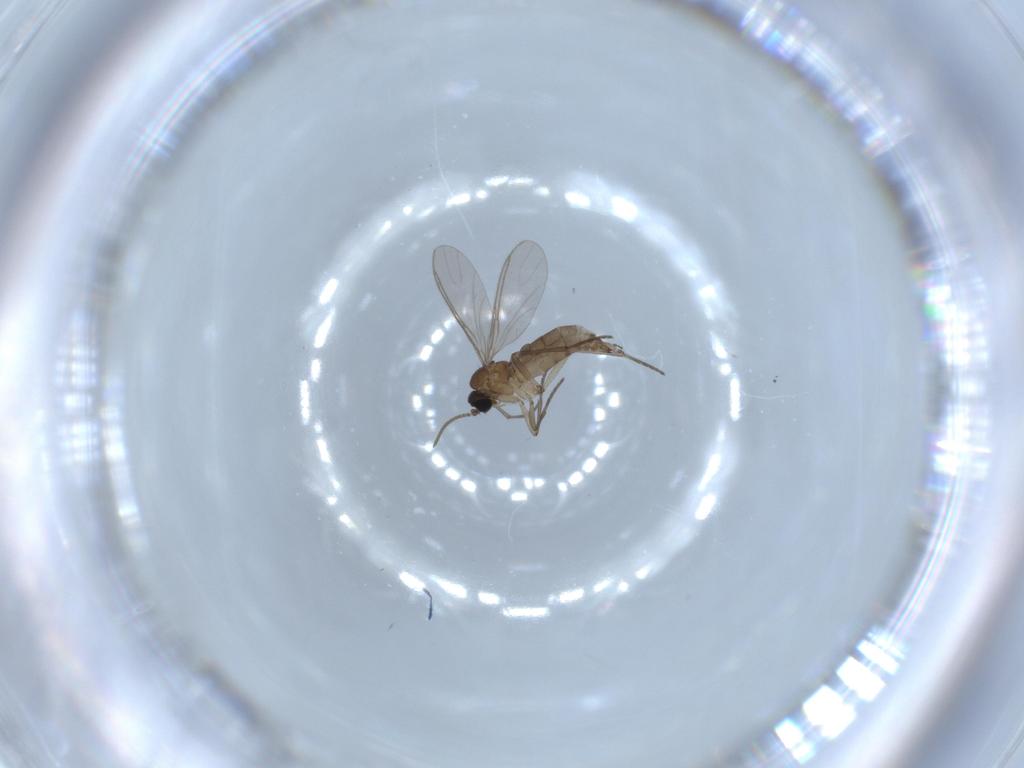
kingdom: Animalia
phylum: Arthropoda
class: Insecta
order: Diptera
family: Sciaridae
